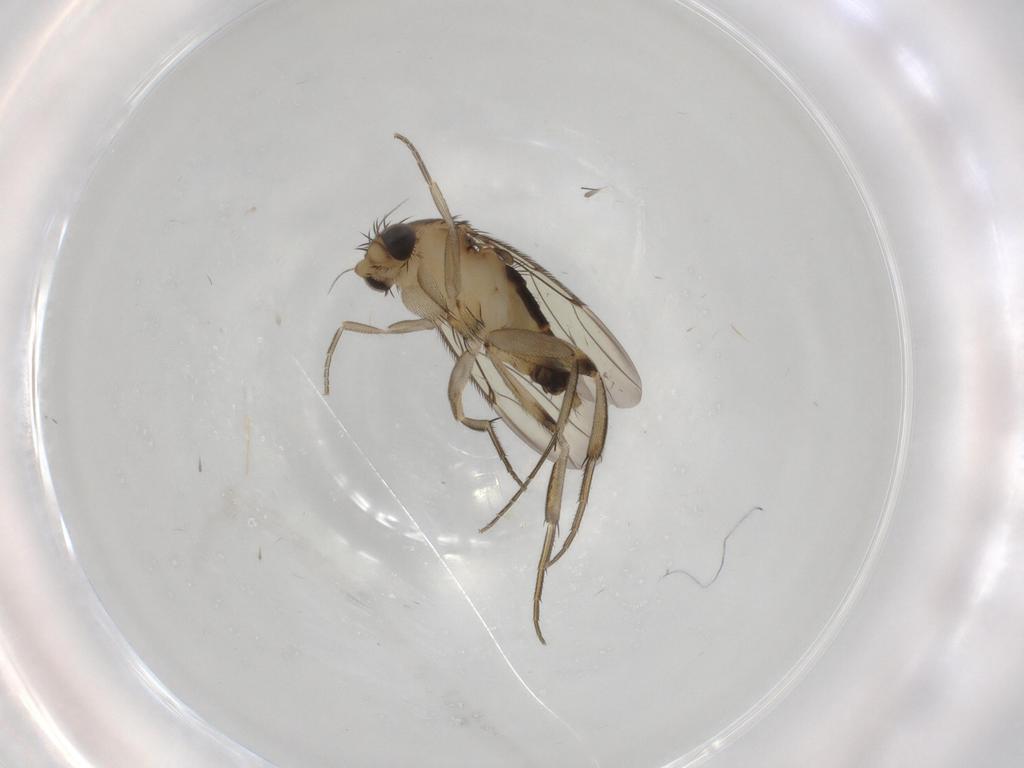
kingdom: Animalia
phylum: Arthropoda
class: Insecta
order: Diptera
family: Phoridae
